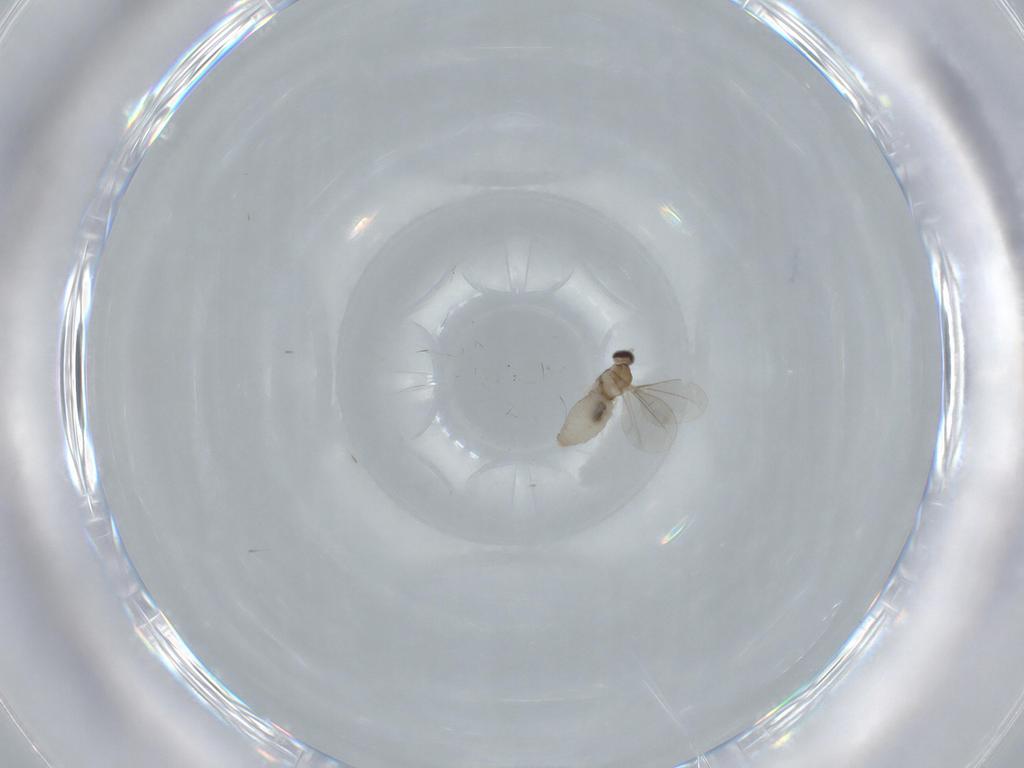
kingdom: Animalia
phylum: Arthropoda
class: Insecta
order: Diptera
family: Cecidomyiidae
